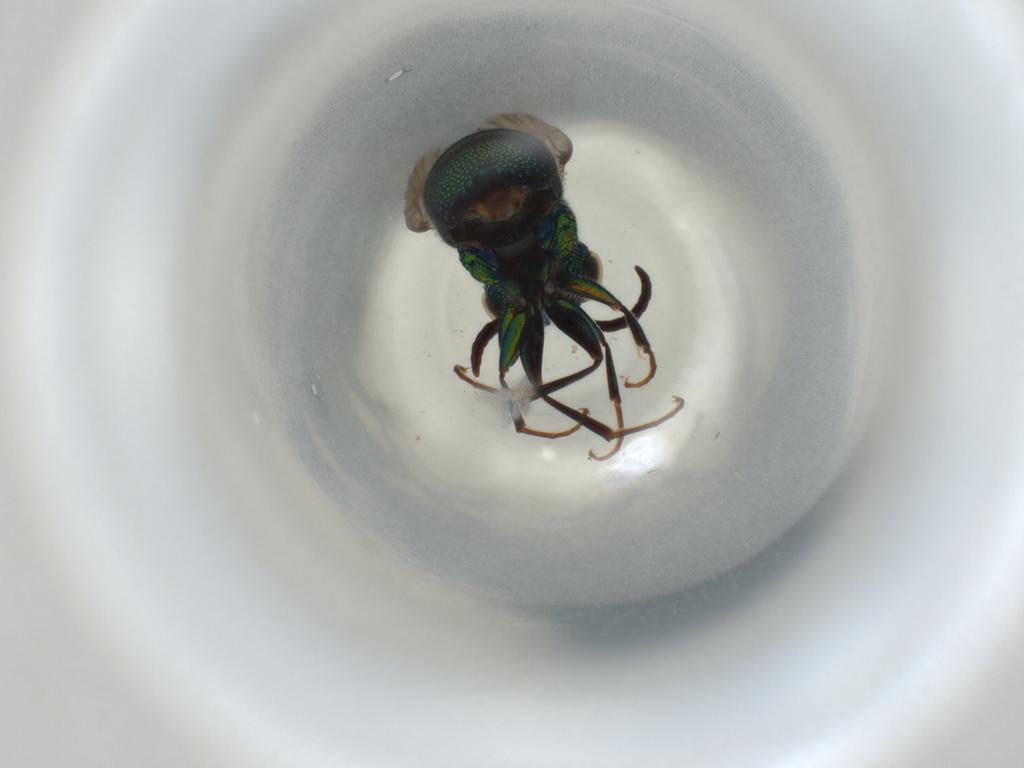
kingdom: Animalia
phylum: Arthropoda
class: Insecta
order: Hymenoptera
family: Chrysididae
